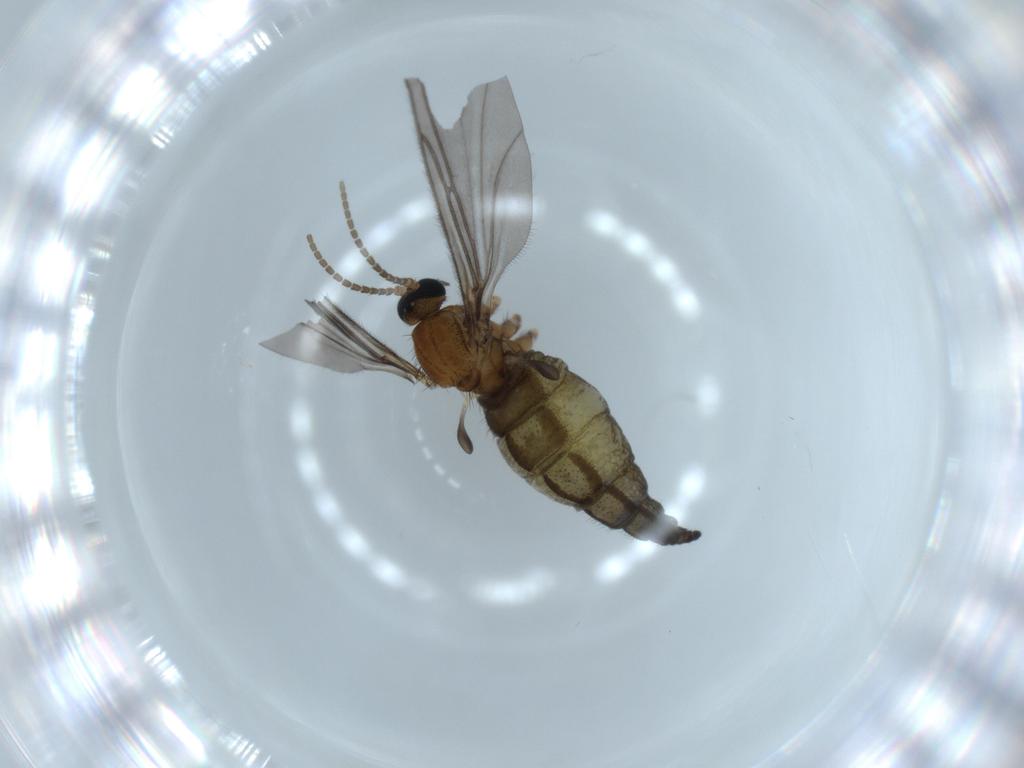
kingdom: Animalia
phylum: Arthropoda
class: Insecta
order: Diptera
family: Sciaridae
